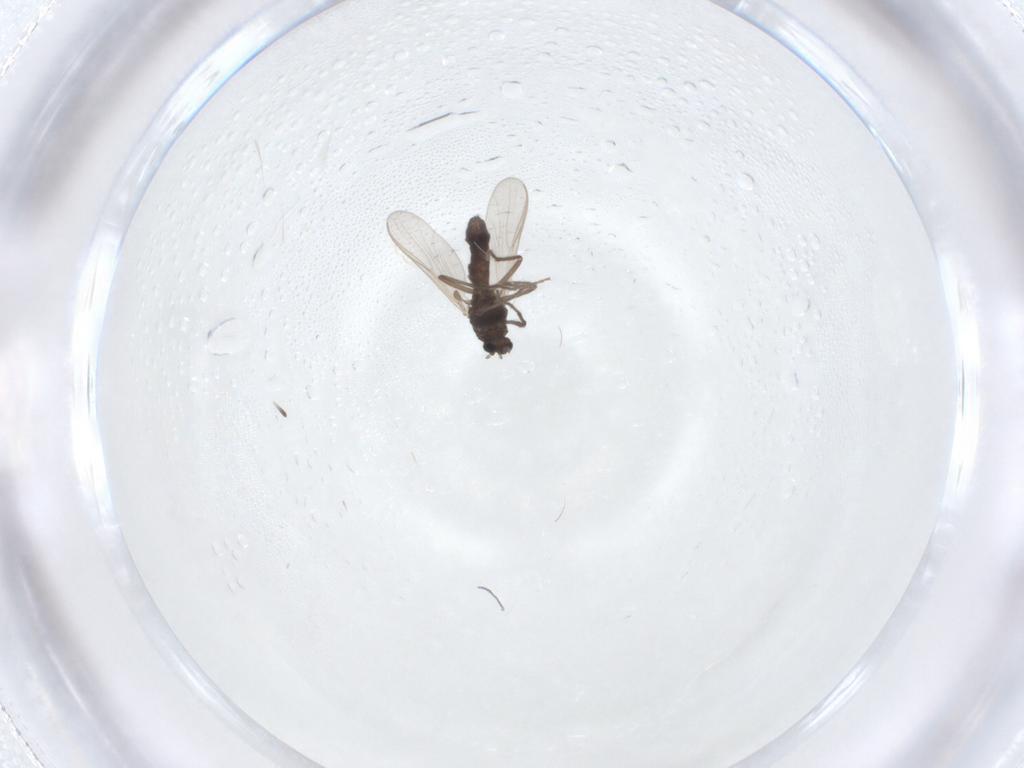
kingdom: Animalia
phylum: Arthropoda
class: Insecta
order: Diptera
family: Chironomidae
